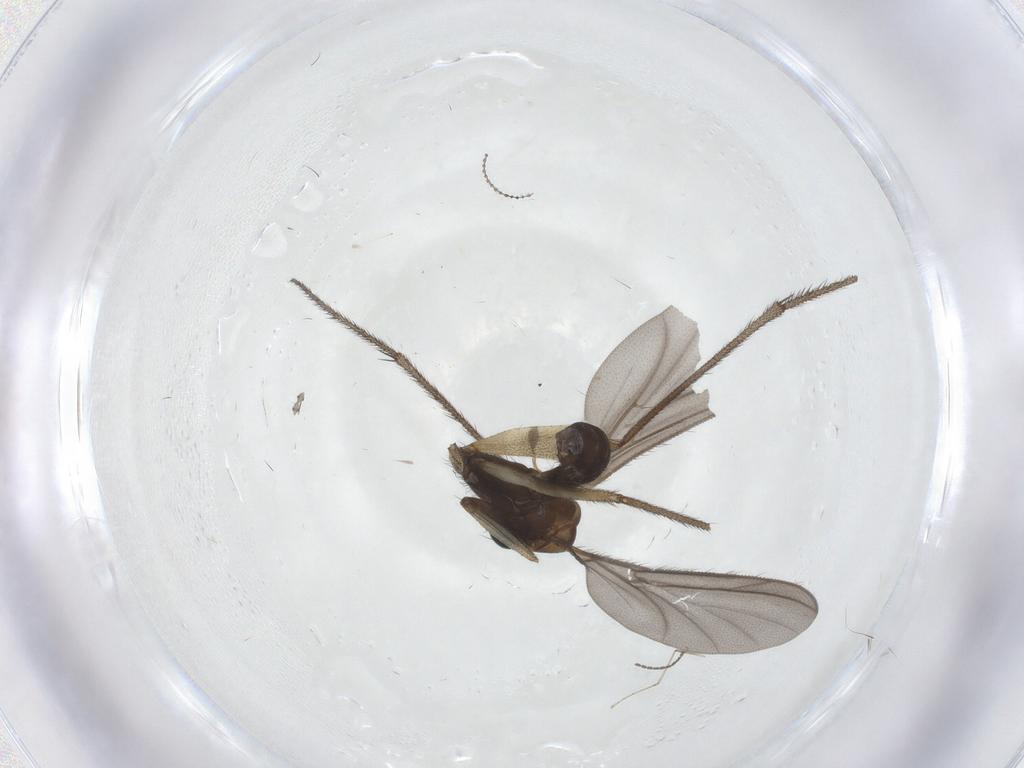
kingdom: Animalia
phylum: Arthropoda
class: Insecta
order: Diptera
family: Ditomyiidae
